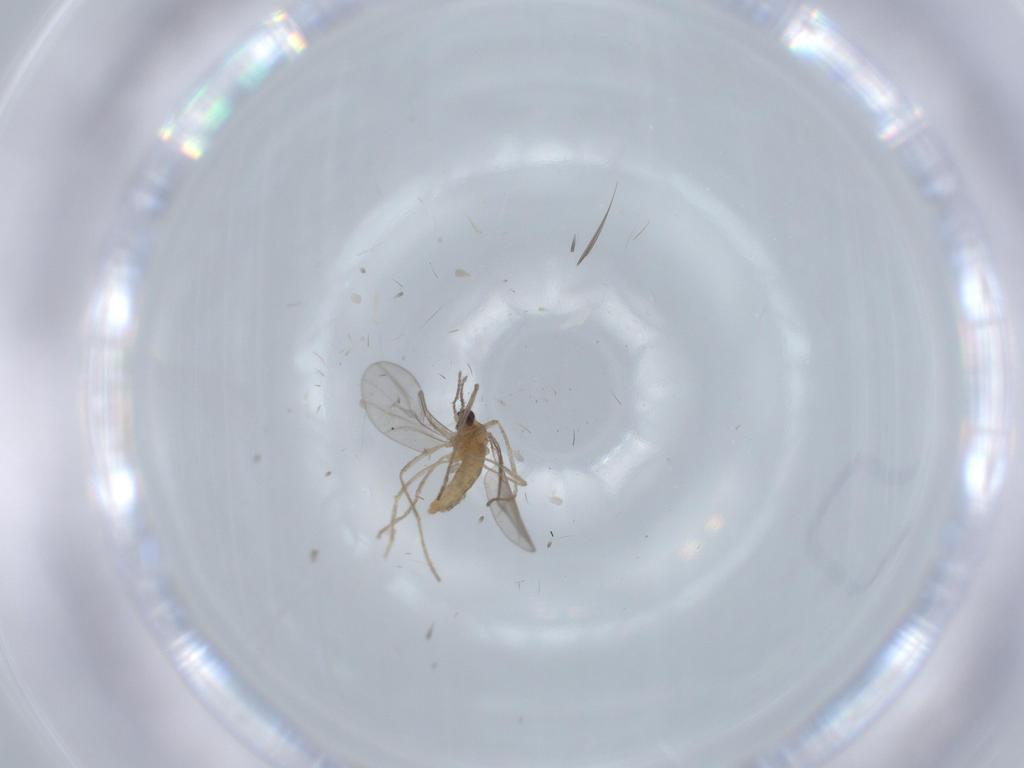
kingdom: Animalia
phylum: Arthropoda
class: Insecta
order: Diptera
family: Cecidomyiidae
